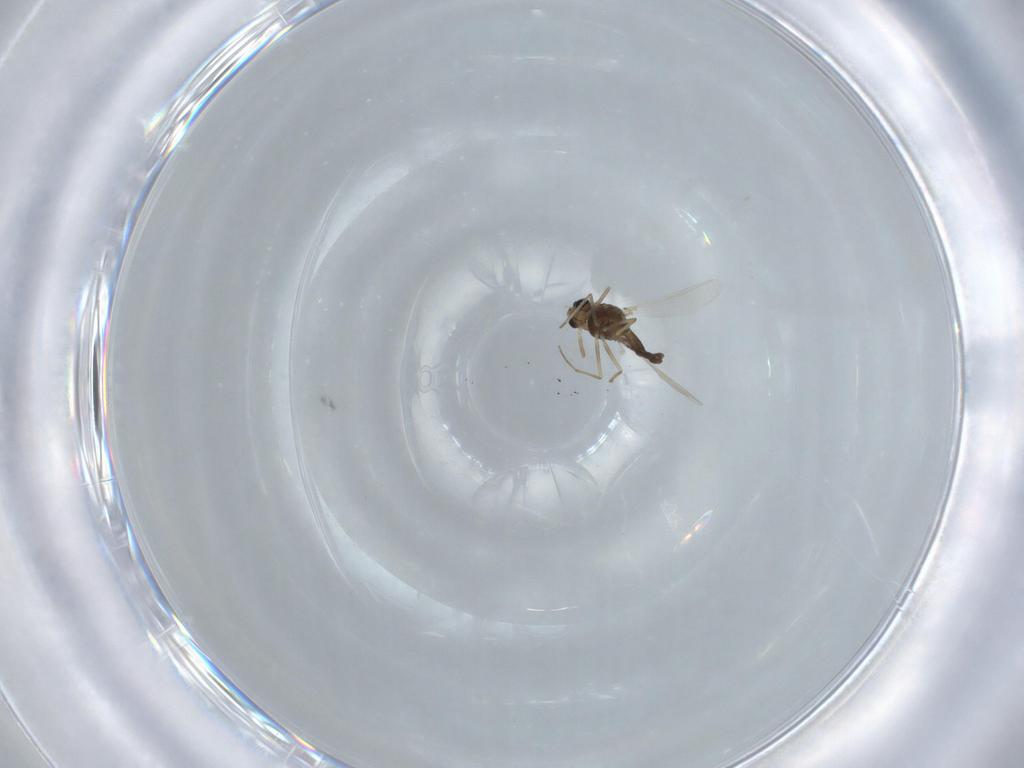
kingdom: Animalia
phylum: Arthropoda
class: Insecta
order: Diptera
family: Chironomidae
